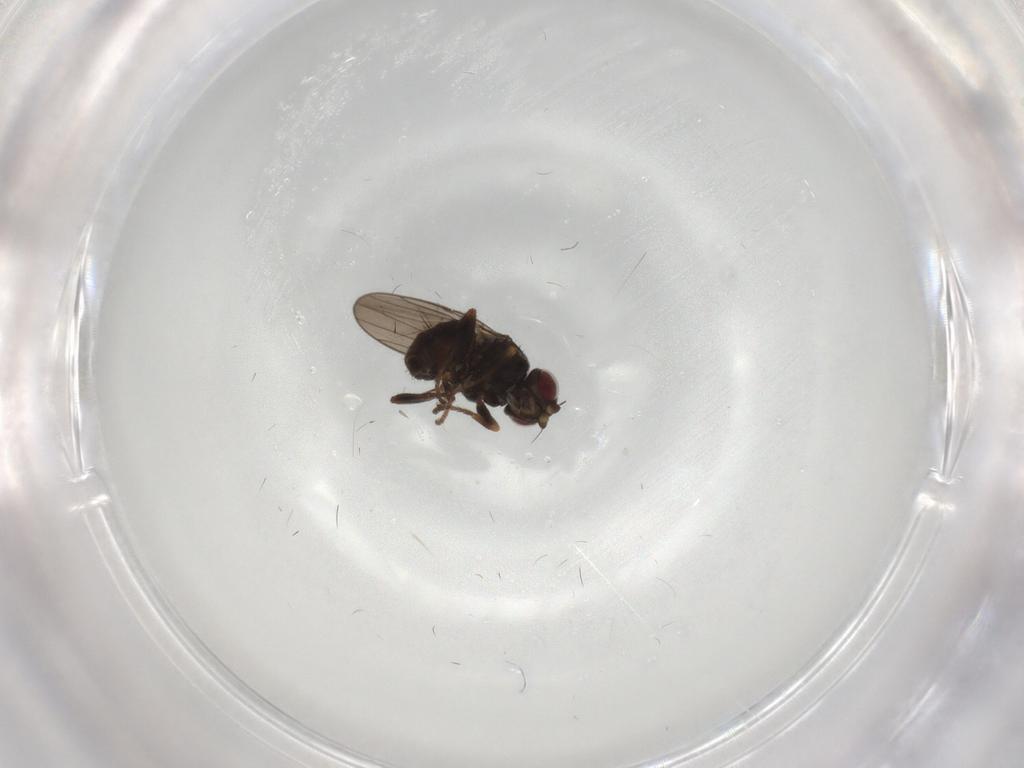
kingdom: Animalia
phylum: Arthropoda
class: Insecta
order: Diptera
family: Chloropidae
